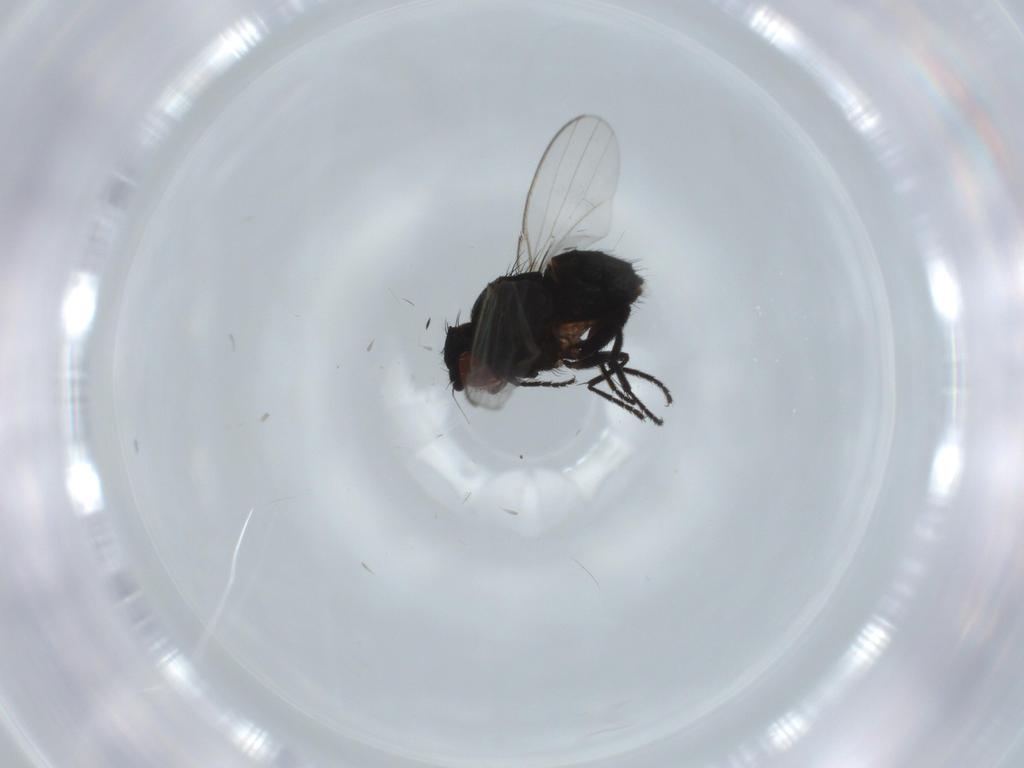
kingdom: Animalia
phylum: Arthropoda
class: Insecta
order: Diptera
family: Milichiidae
